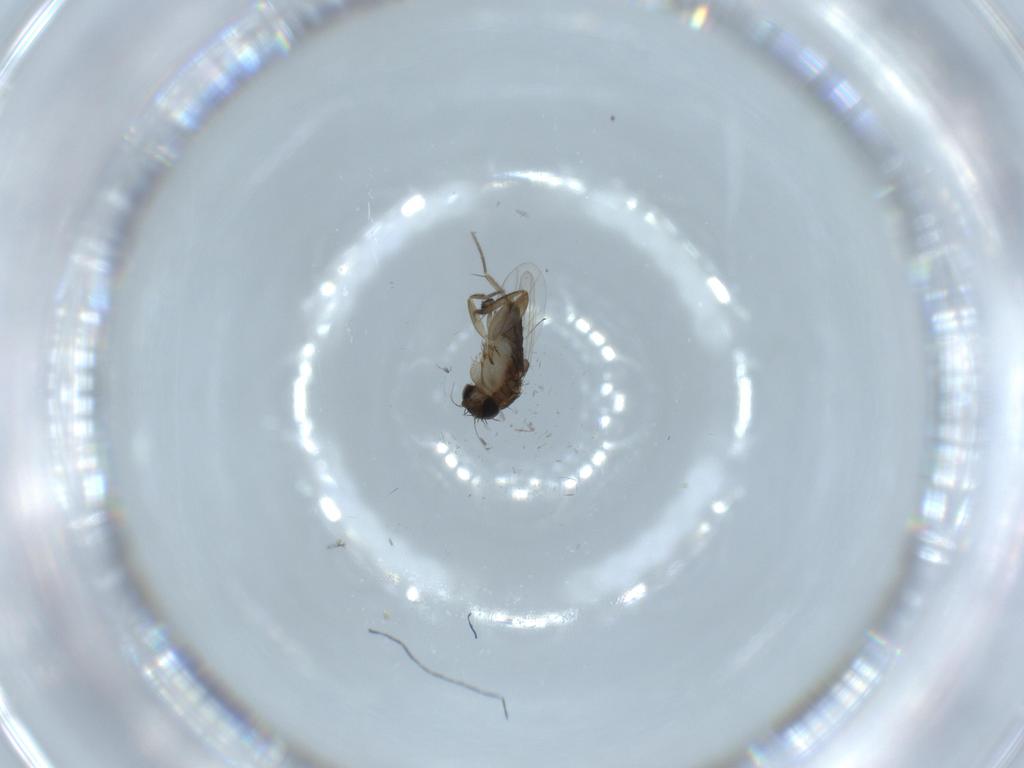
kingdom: Animalia
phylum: Arthropoda
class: Insecta
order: Diptera
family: Phoridae
